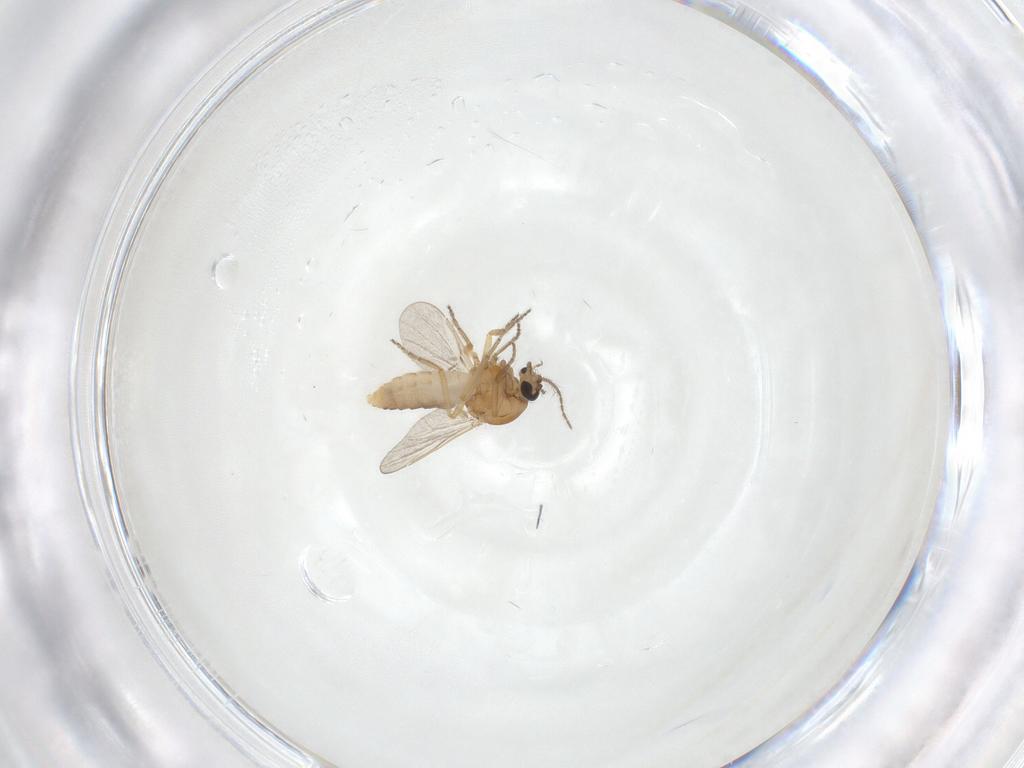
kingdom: Animalia
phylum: Arthropoda
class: Insecta
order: Diptera
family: Ceratopogonidae
